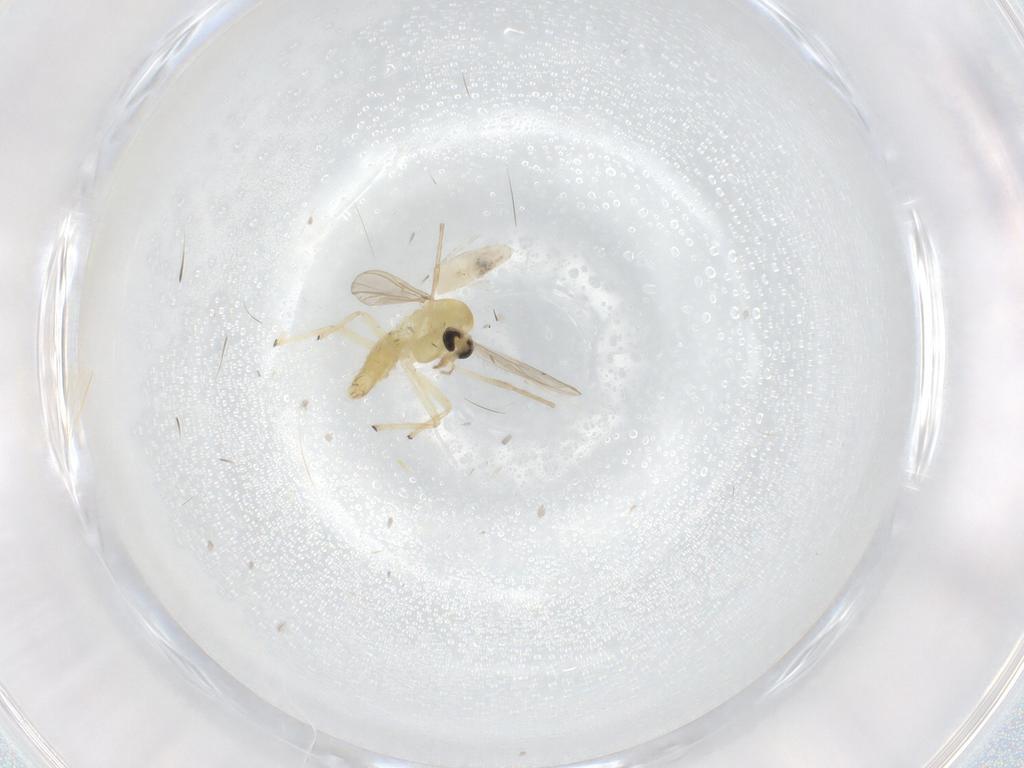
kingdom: Animalia
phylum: Arthropoda
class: Insecta
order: Diptera
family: Chironomidae
